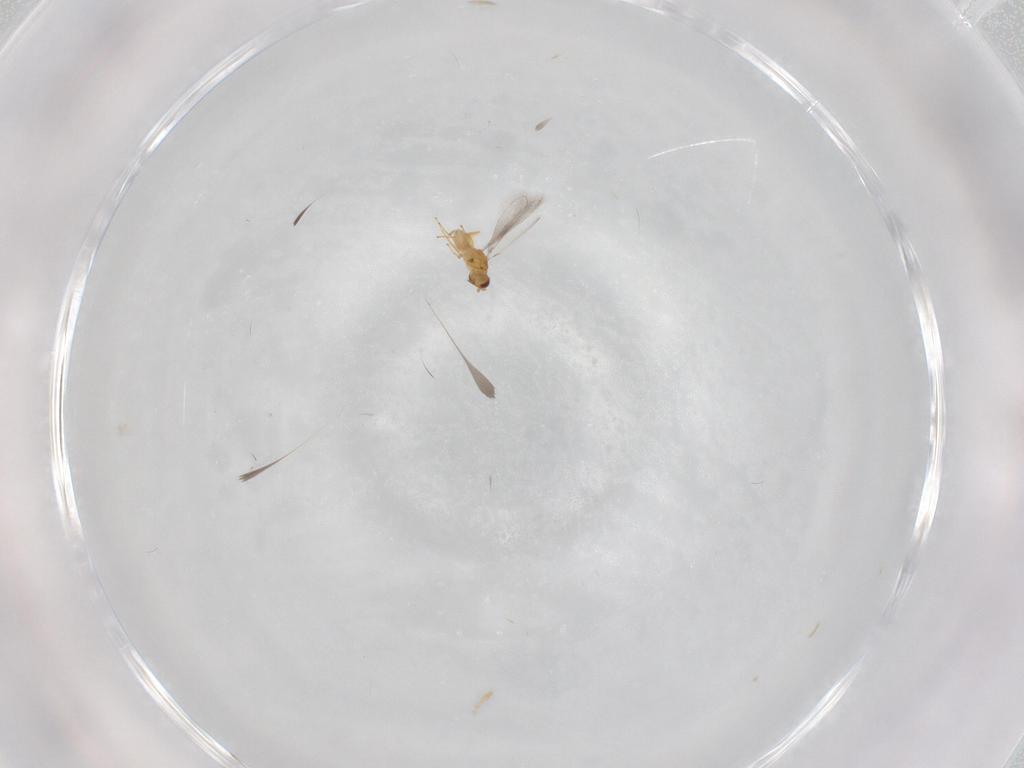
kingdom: Animalia
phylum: Arthropoda
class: Insecta
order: Hymenoptera
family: Mymaridae
